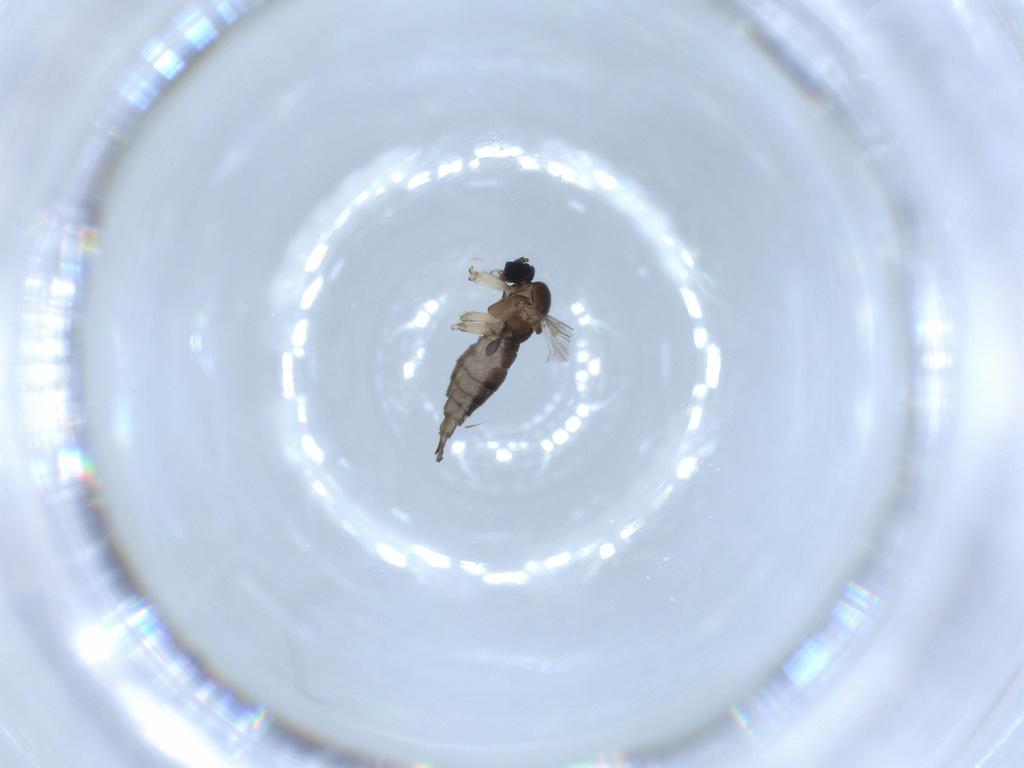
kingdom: Animalia
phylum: Arthropoda
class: Insecta
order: Diptera
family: Sciaridae
